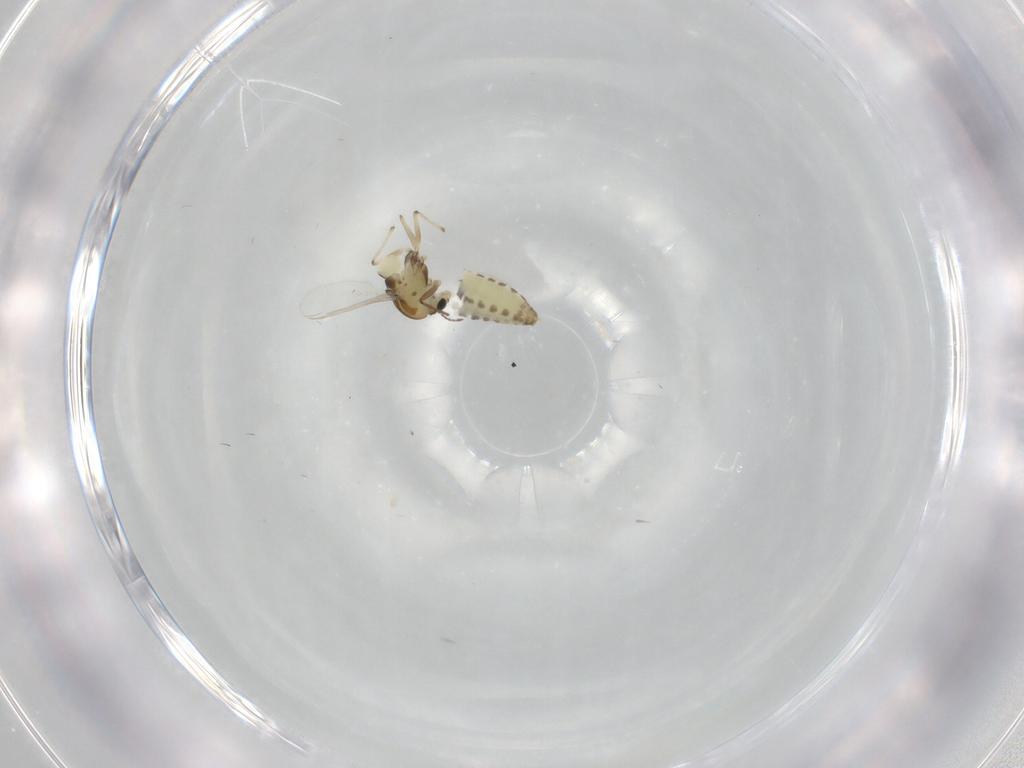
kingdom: Animalia
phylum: Arthropoda
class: Insecta
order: Diptera
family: Chironomidae
